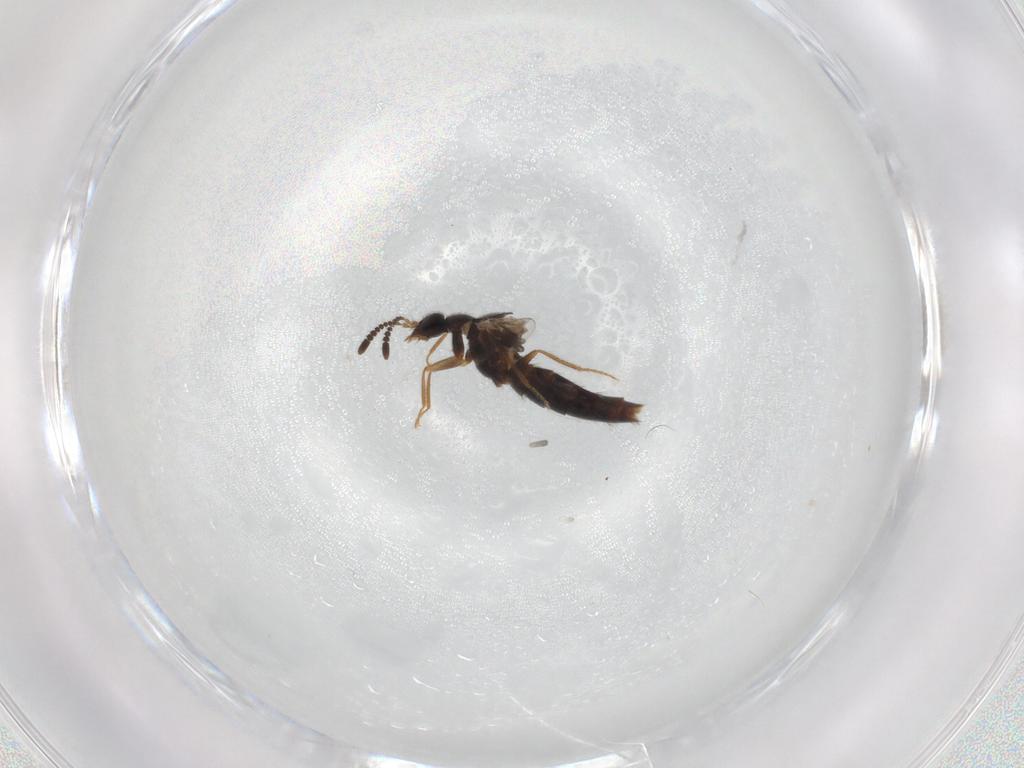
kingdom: Animalia
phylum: Arthropoda
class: Insecta
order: Coleoptera
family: Staphylinidae
